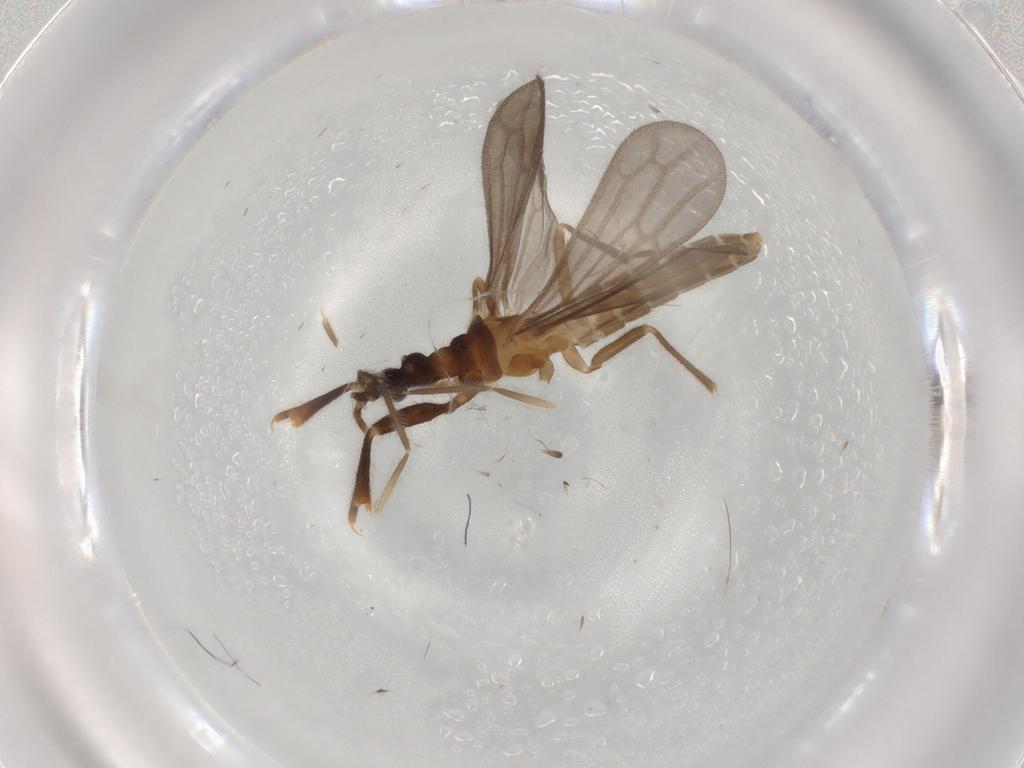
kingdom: Animalia
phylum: Arthropoda
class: Insecta
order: Hemiptera
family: Enicocephalidae
